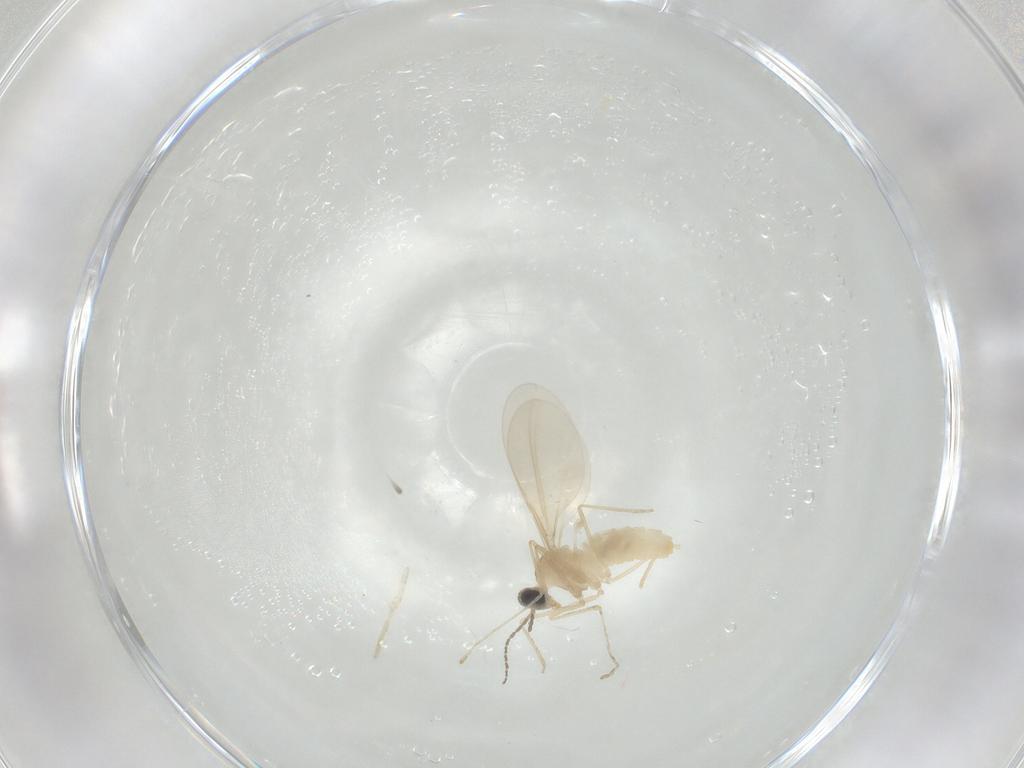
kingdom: Animalia
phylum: Arthropoda
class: Insecta
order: Diptera
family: Cecidomyiidae
